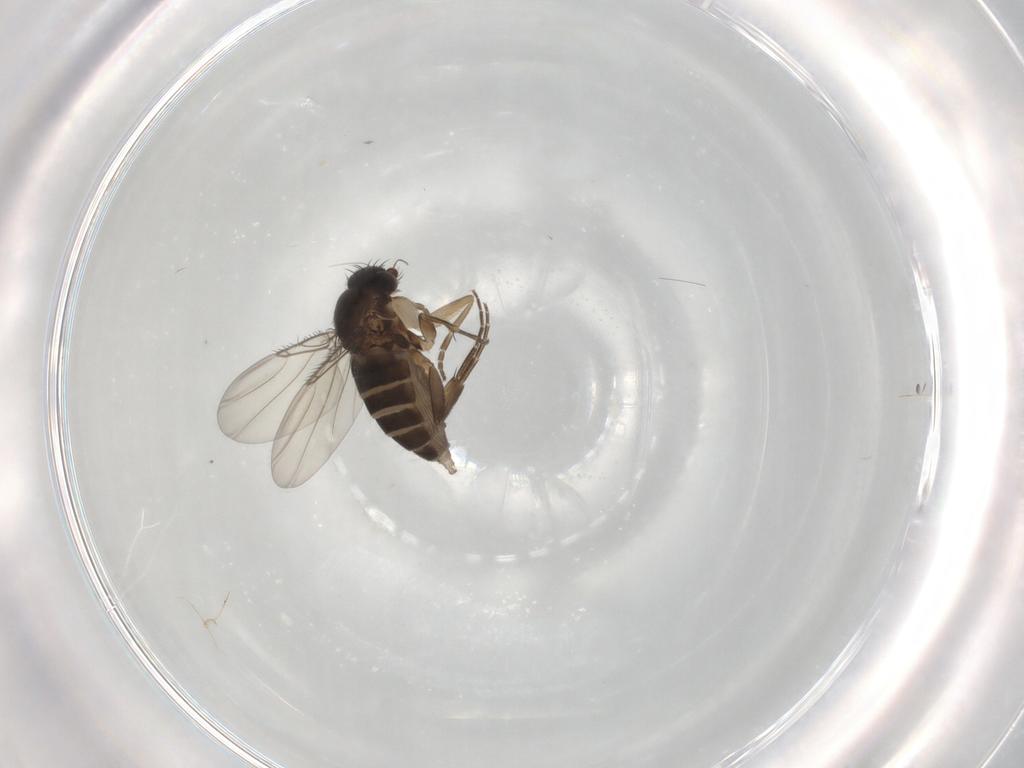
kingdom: Animalia
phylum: Arthropoda
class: Insecta
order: Diptera
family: Phoridae
